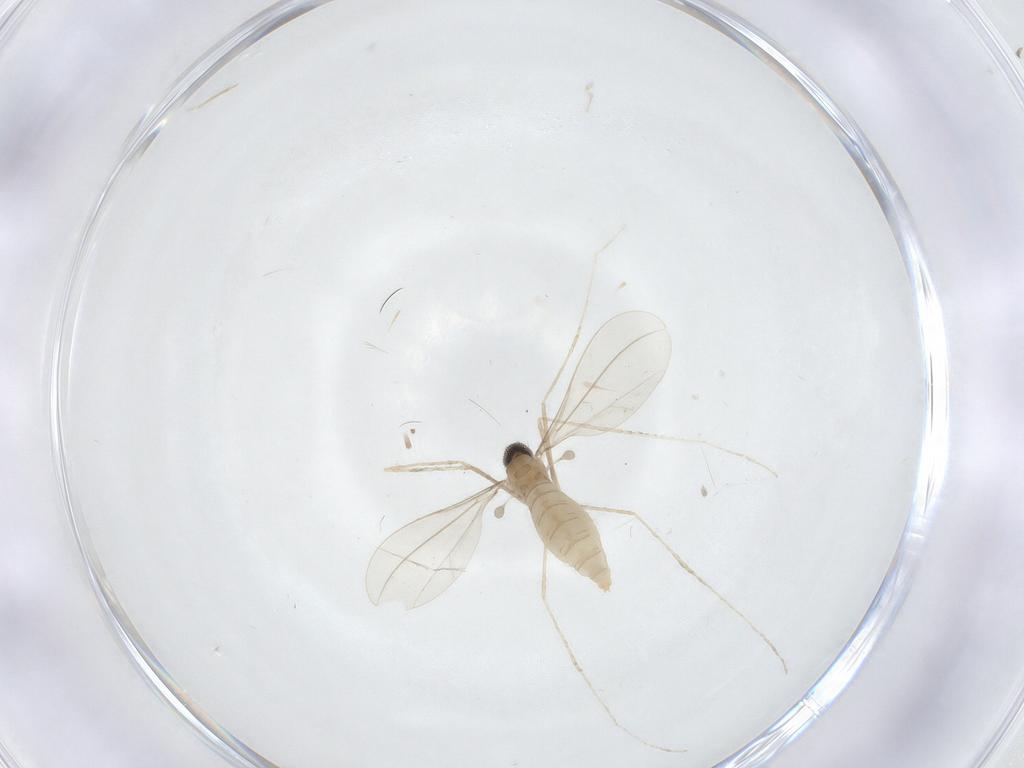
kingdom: Animalia
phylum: Arthropoda
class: Insecta
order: Diptera
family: Cecidomyiidae
